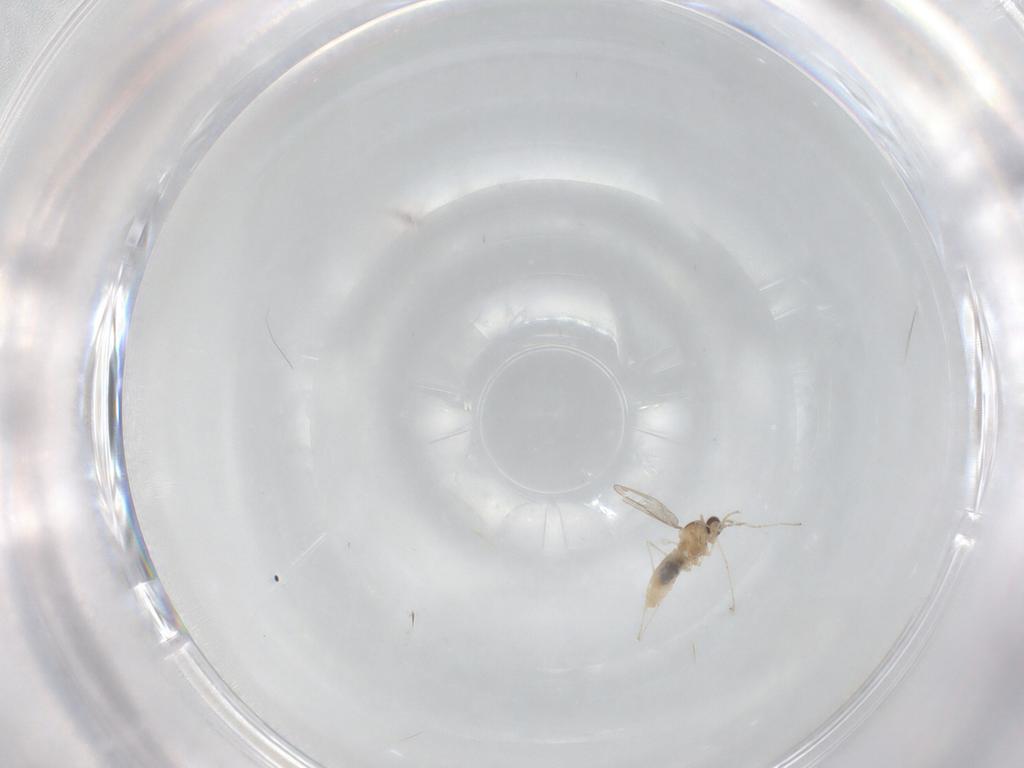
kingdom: Animalia
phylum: Arthropoda
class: Insecta
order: Diptera
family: Cecidomyiidae
